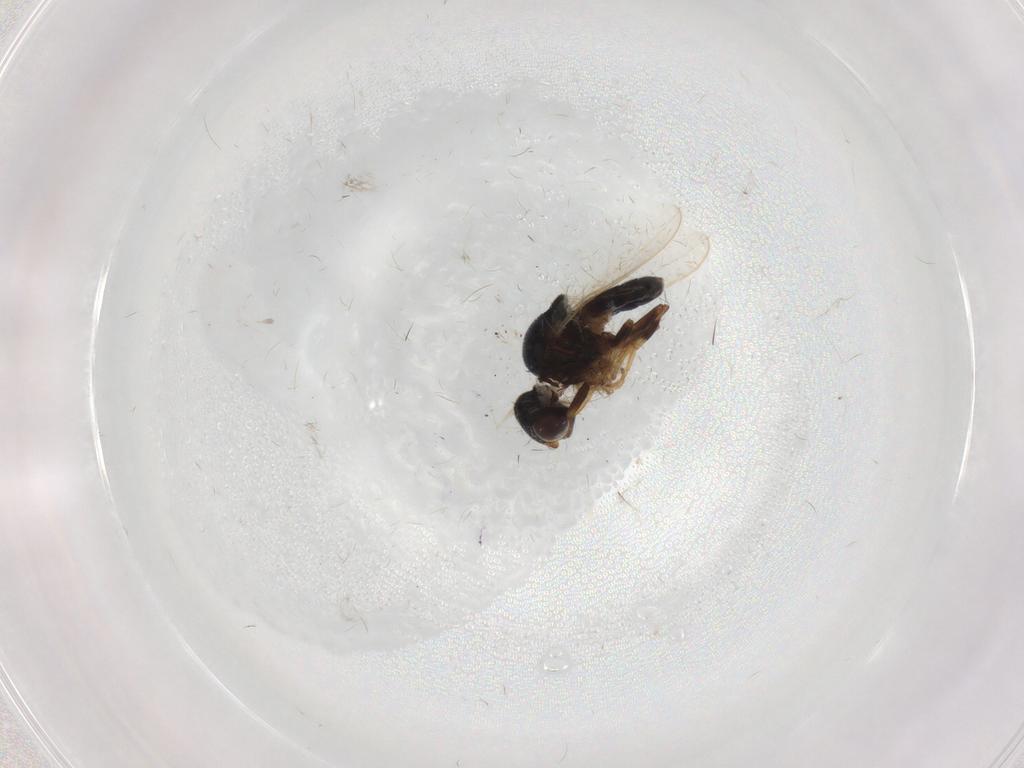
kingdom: Animalia
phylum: Arthropoda
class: Insecta
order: Diptera
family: Chloropidae
